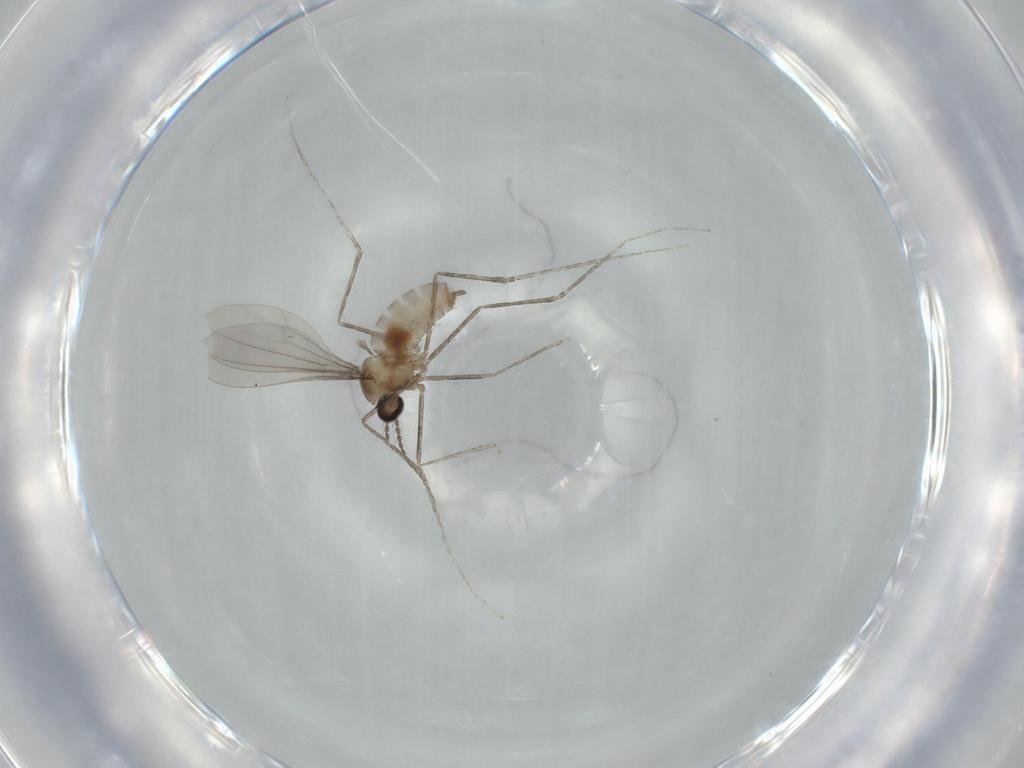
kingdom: Animalia
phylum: Arthropoda
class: Insecta
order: Diptera
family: Cecidomyiidae
